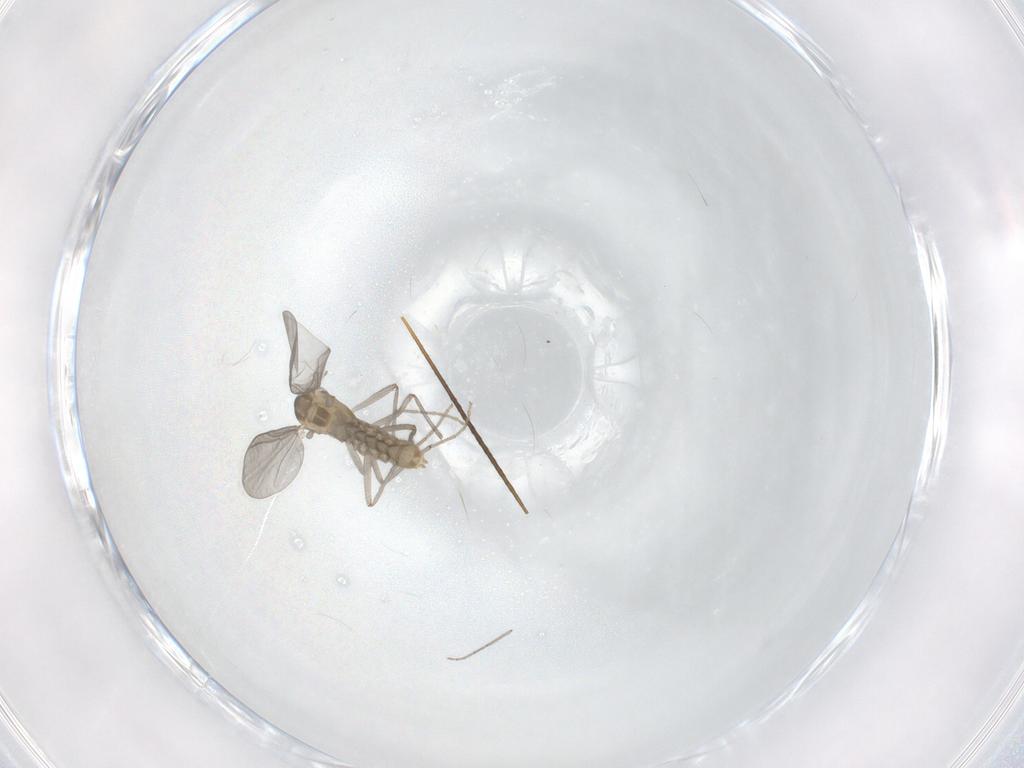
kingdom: Animalia
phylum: Arthropoda
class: Insecta
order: Diptera
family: Chironomidae
